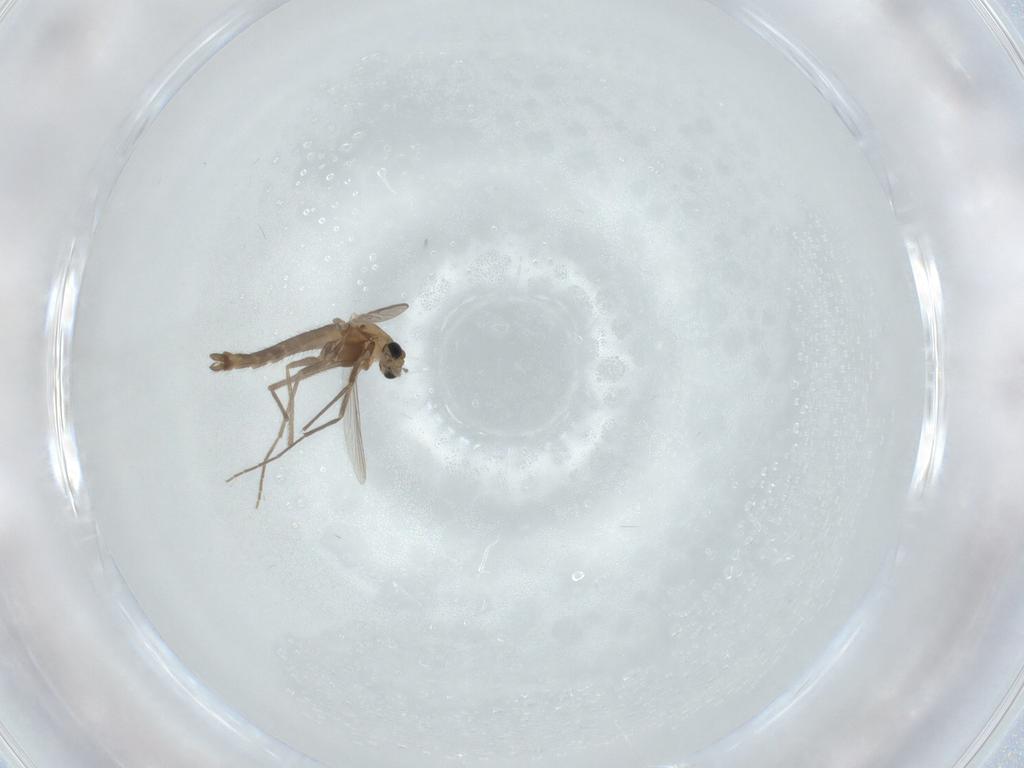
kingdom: Animalia
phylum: Arthropoda
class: Insecta
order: Diptera
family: Chironomidae
